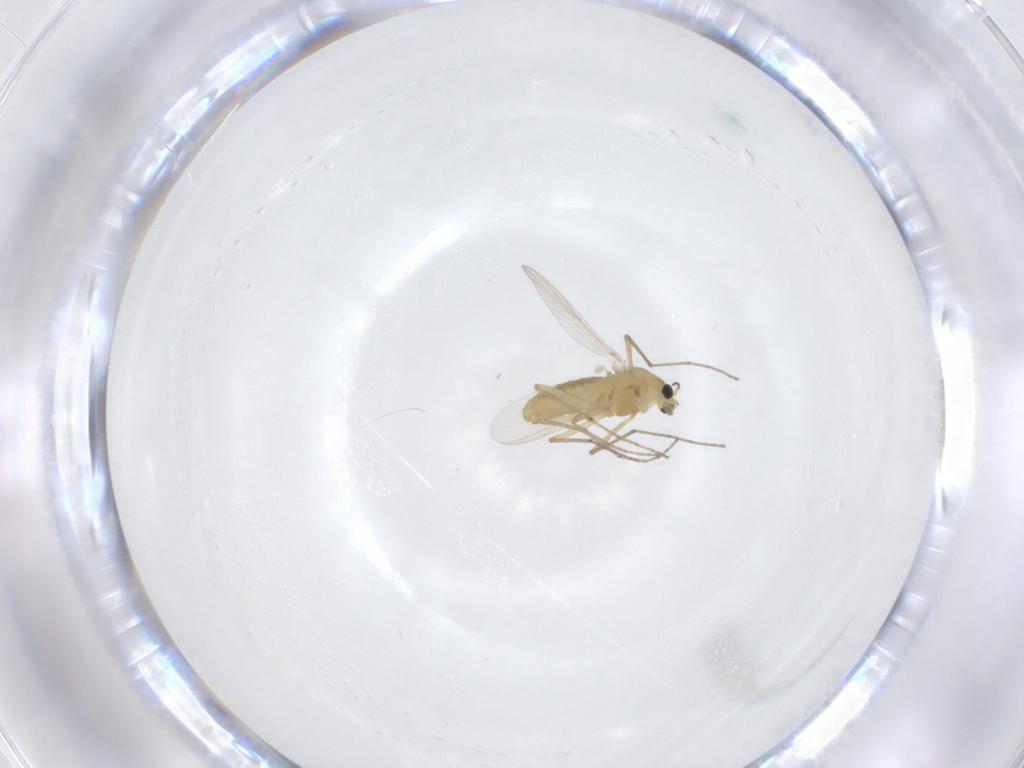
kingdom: Animalia
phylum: Arthropoda
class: Insecta
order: Diptera
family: Chironomidae
